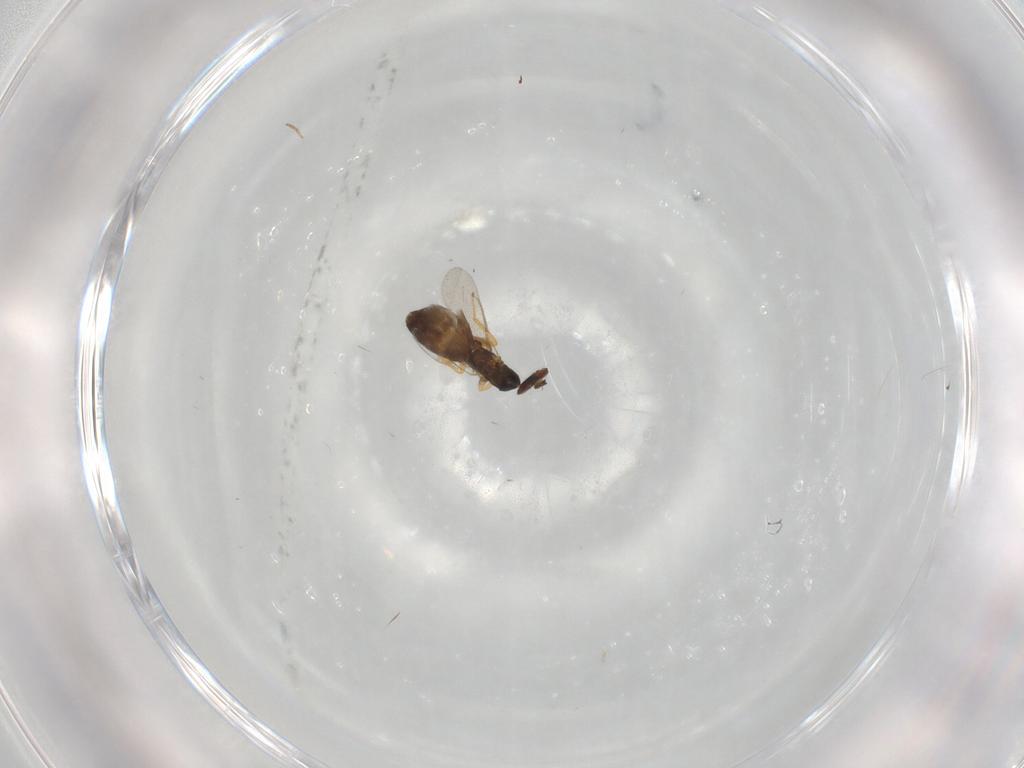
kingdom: Animalia
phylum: Arthropoda
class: Insecta
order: Hymenoptera
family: Eulophidae
